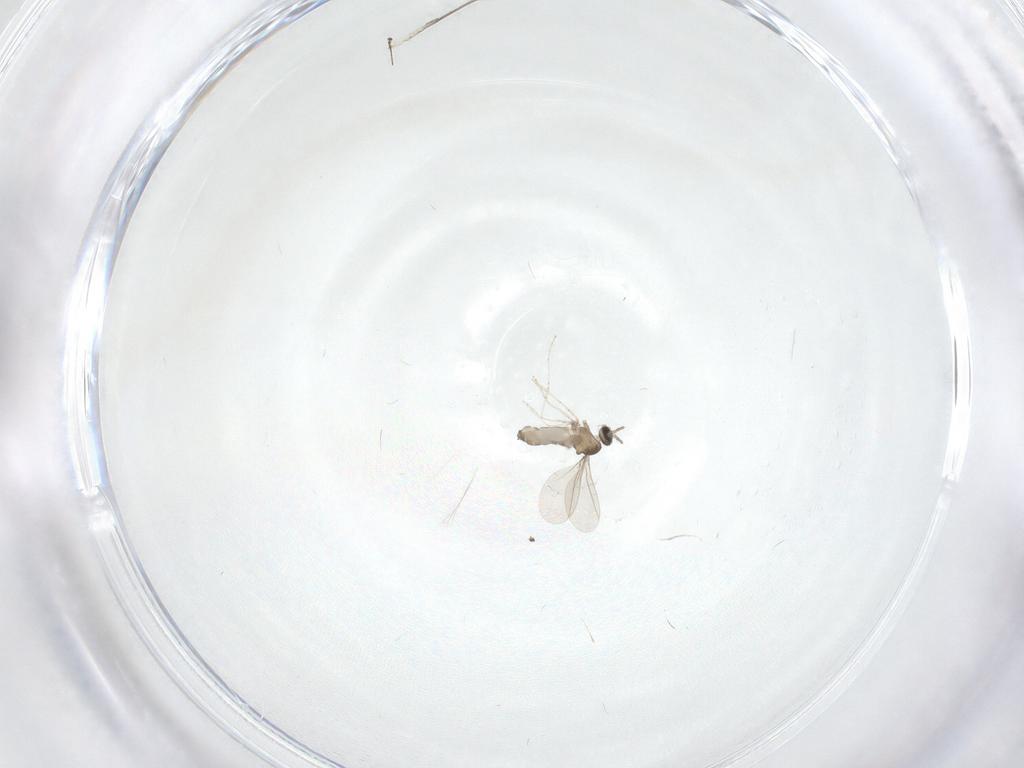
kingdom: Animalia
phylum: Arthropoda
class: Insecta
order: Diptera
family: Cecidomyiidae
